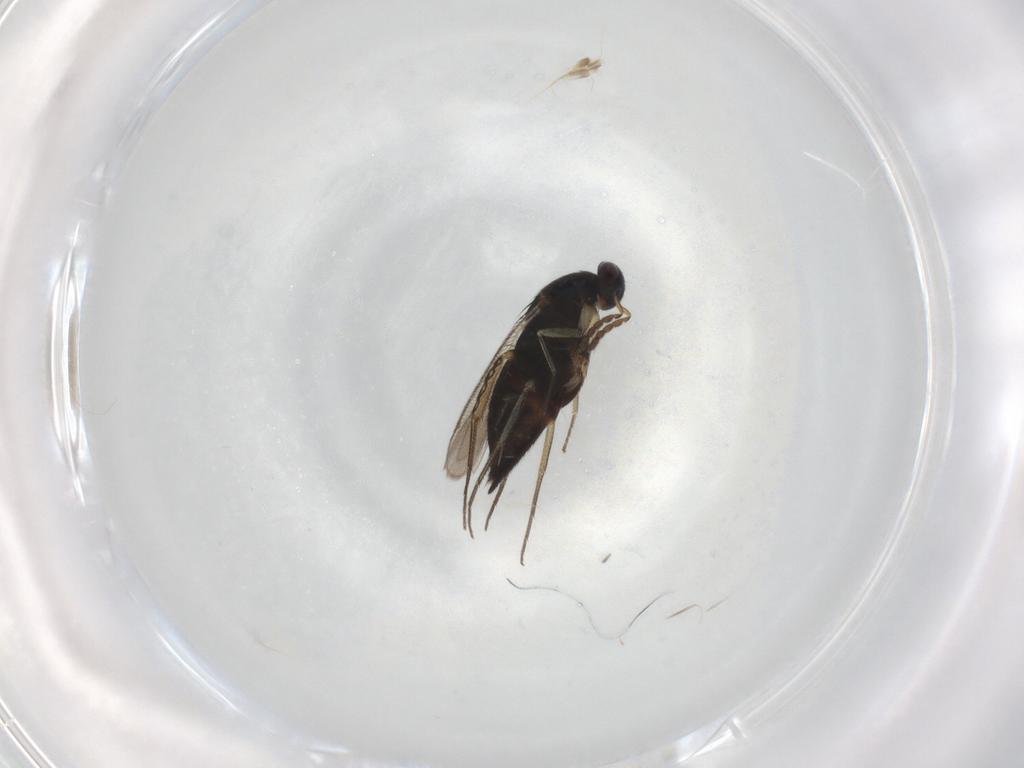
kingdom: Animalia
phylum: Arthropoda
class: Insecta
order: Hymenoptera
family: Eulophidae
